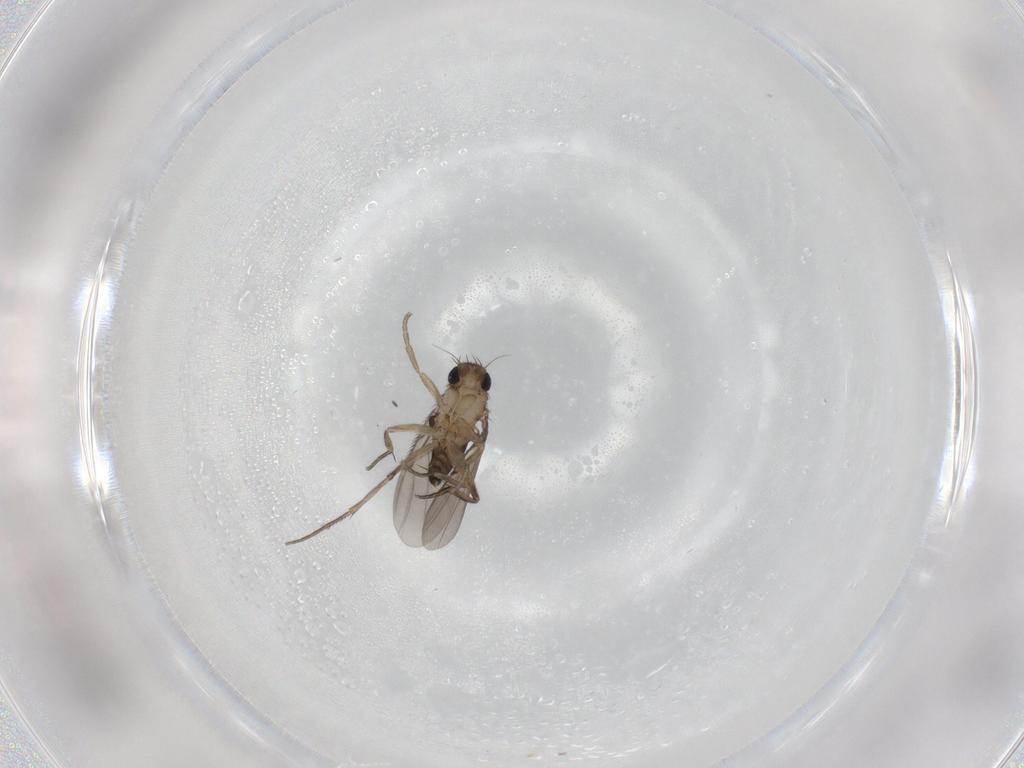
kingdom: Animalia
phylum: Arthropoda
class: Insecta
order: Diptera
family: Phoridae
